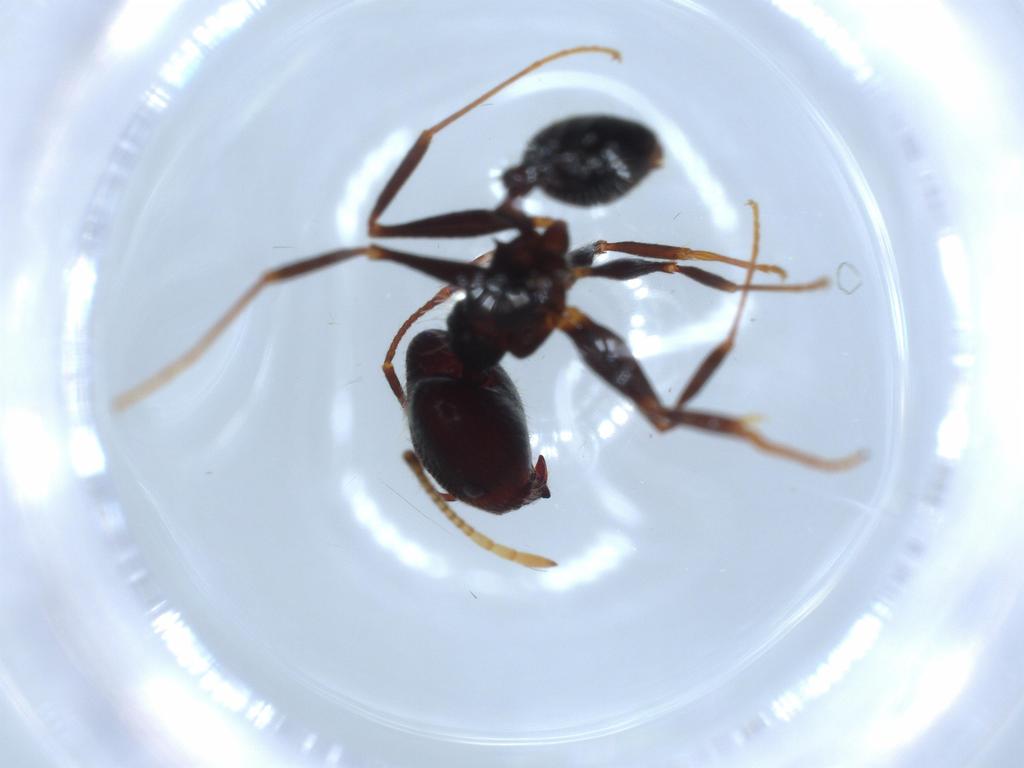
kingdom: Animalia
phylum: Arthropoda
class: Insecta
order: Hymenoptera
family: Formicidae
